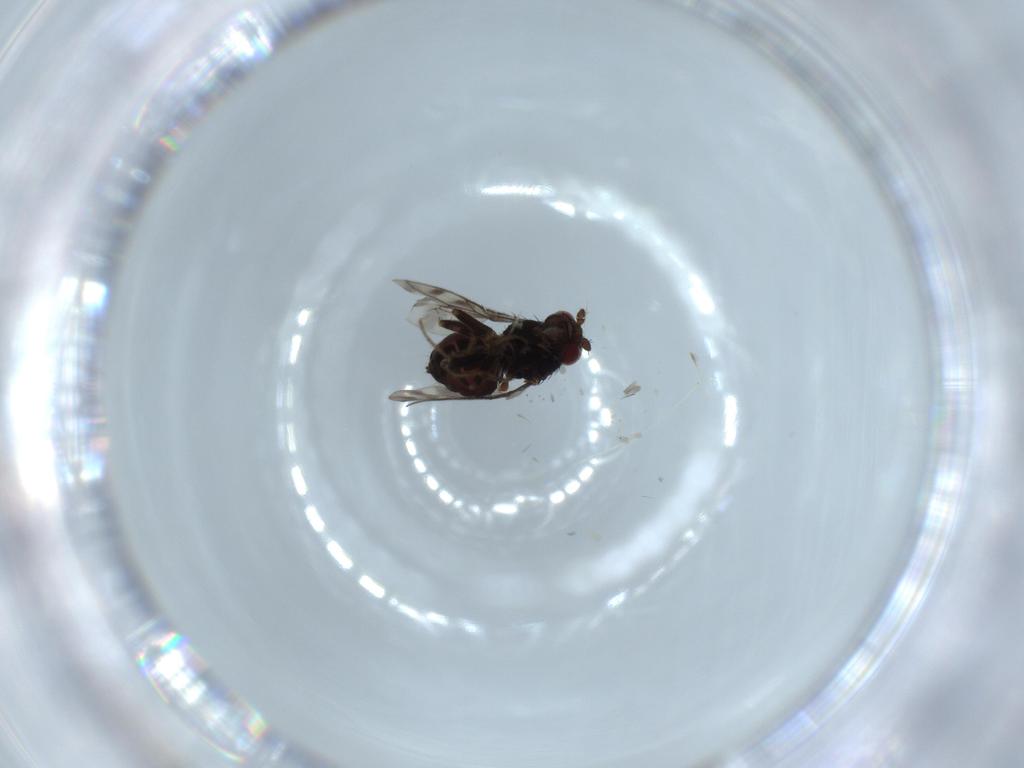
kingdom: Animalia
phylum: Arthropoda
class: Insecta
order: Diptera
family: Sphaeroceridae
